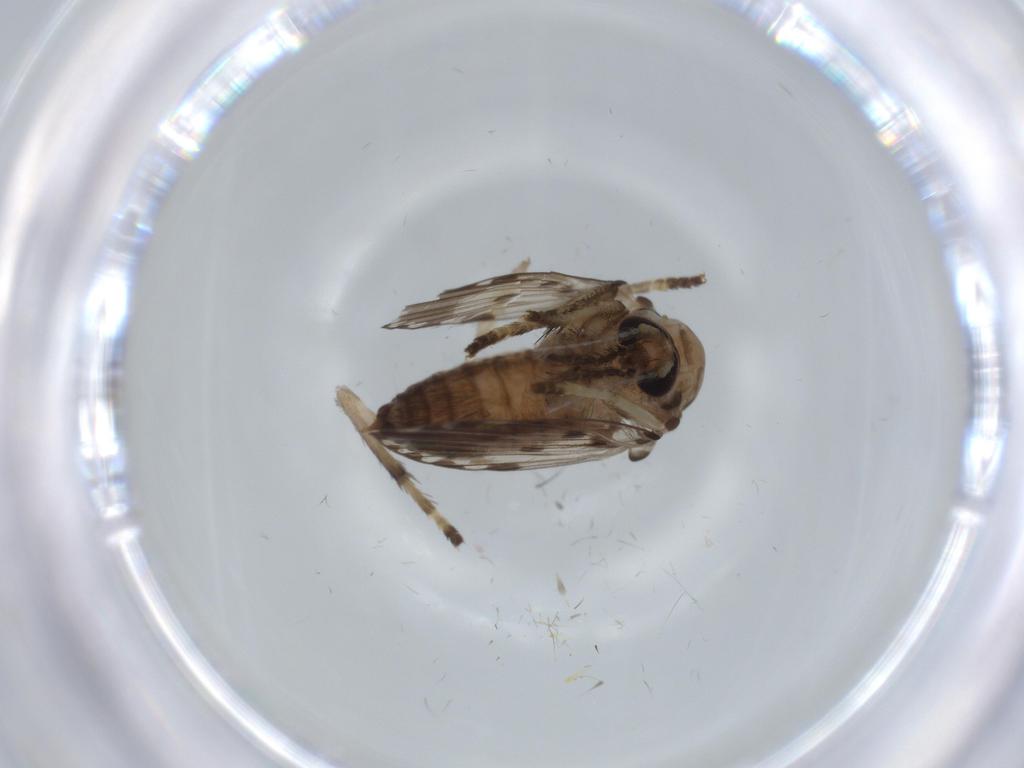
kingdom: Animalia
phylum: Arthropoda
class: Insecta
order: Diptera
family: Psychodidae
